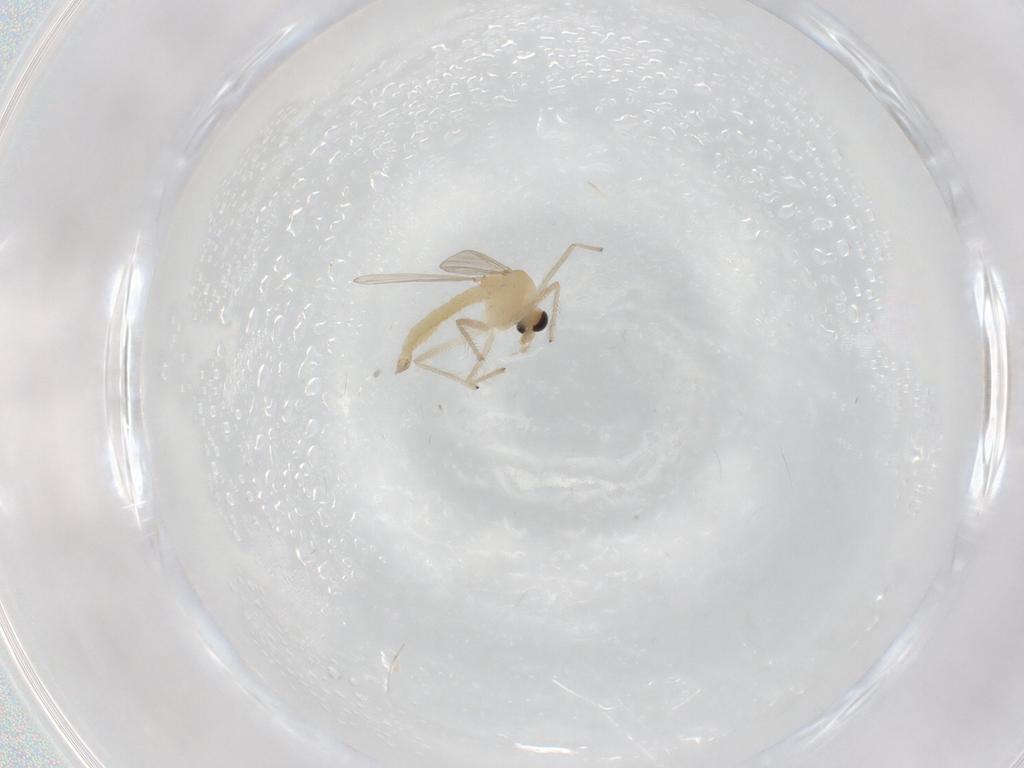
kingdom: Animalia
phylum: Arthropoda
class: Insecta
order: Diptera
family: Chironomidae
